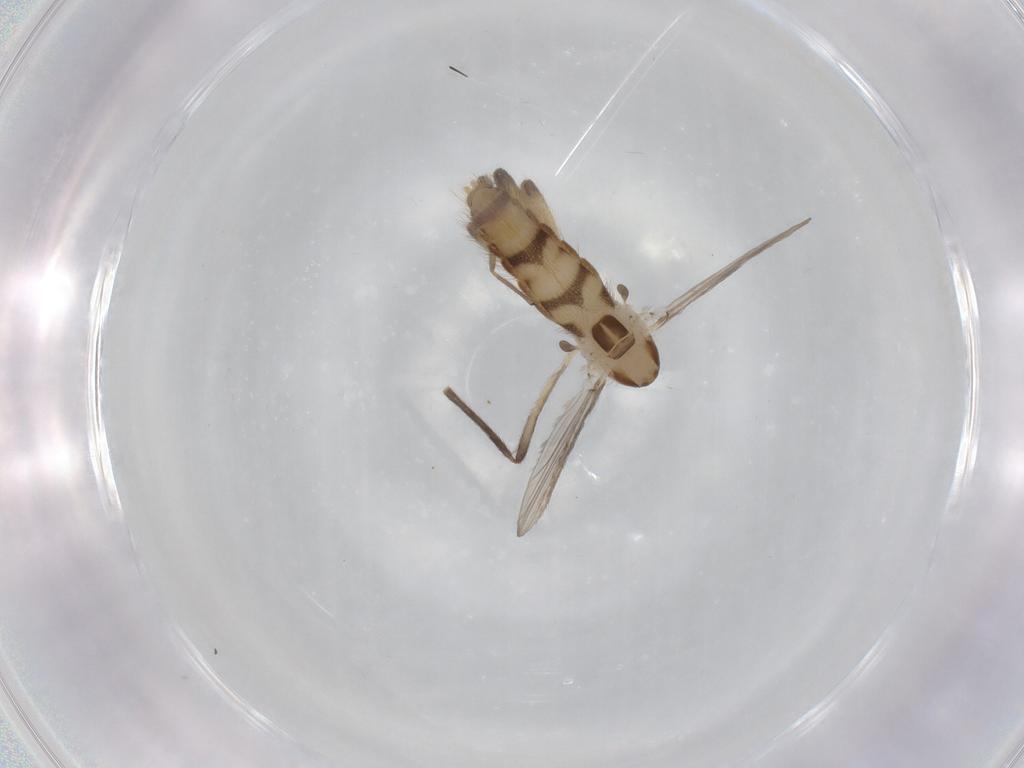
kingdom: Animalia
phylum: Arthropoda
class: Insecta
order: Diptera
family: Chironomidae
